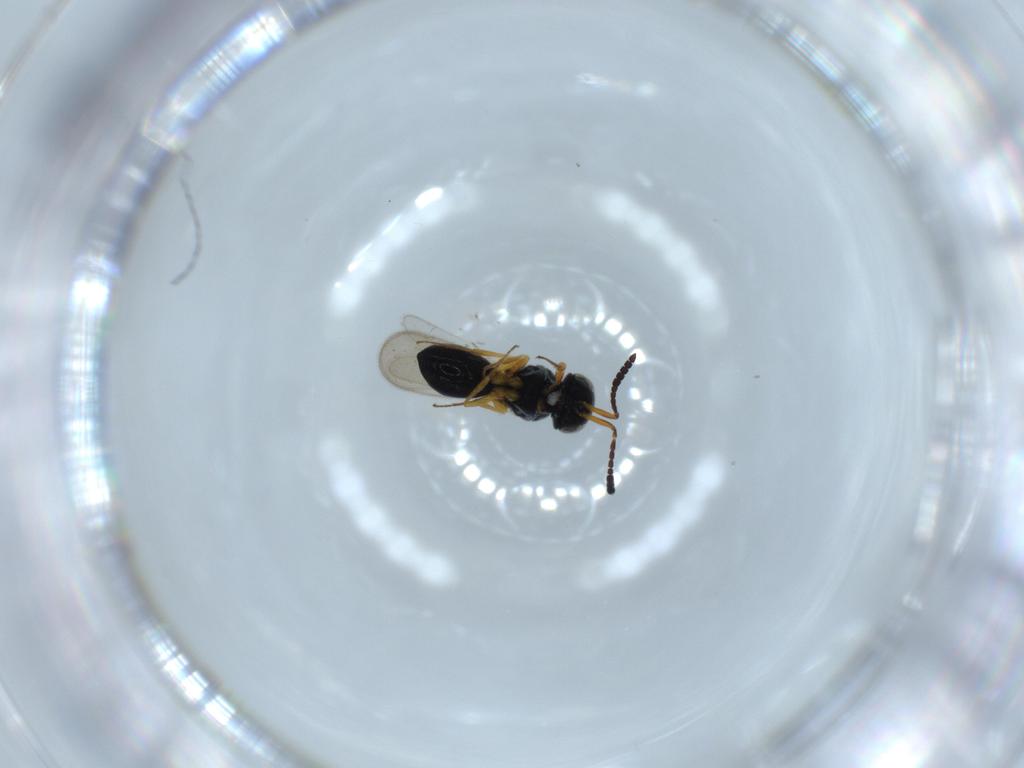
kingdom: Animalia
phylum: Arthropoda
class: Insecta
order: Hymenoptera
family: Scelionidae
